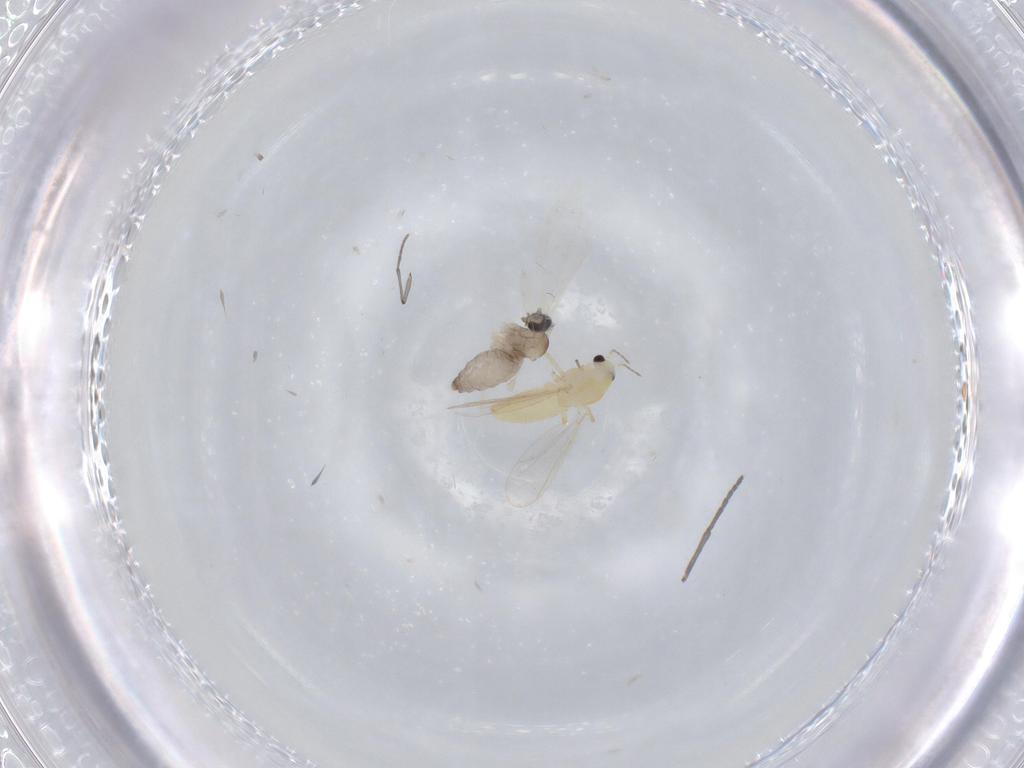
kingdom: Animalia
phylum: Arthropoda
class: Insecta
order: Diptera
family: Chironomidae
